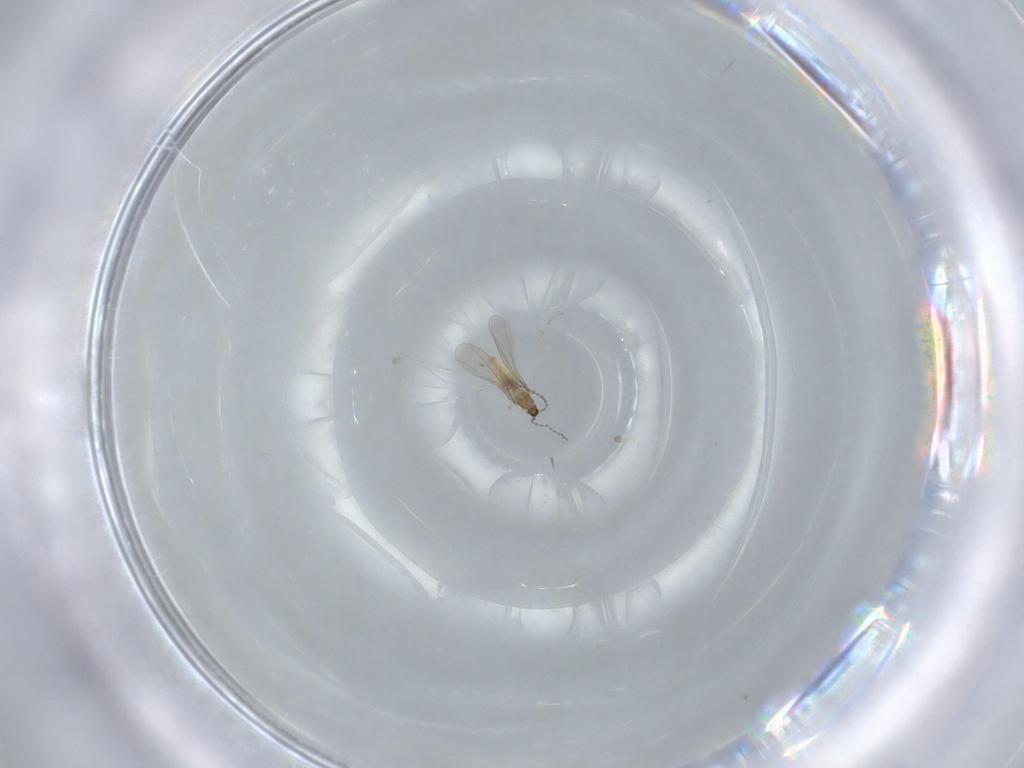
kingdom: Animalia
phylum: Arthropoda
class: Insecta
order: Diptera
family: Cecidomyiidae
